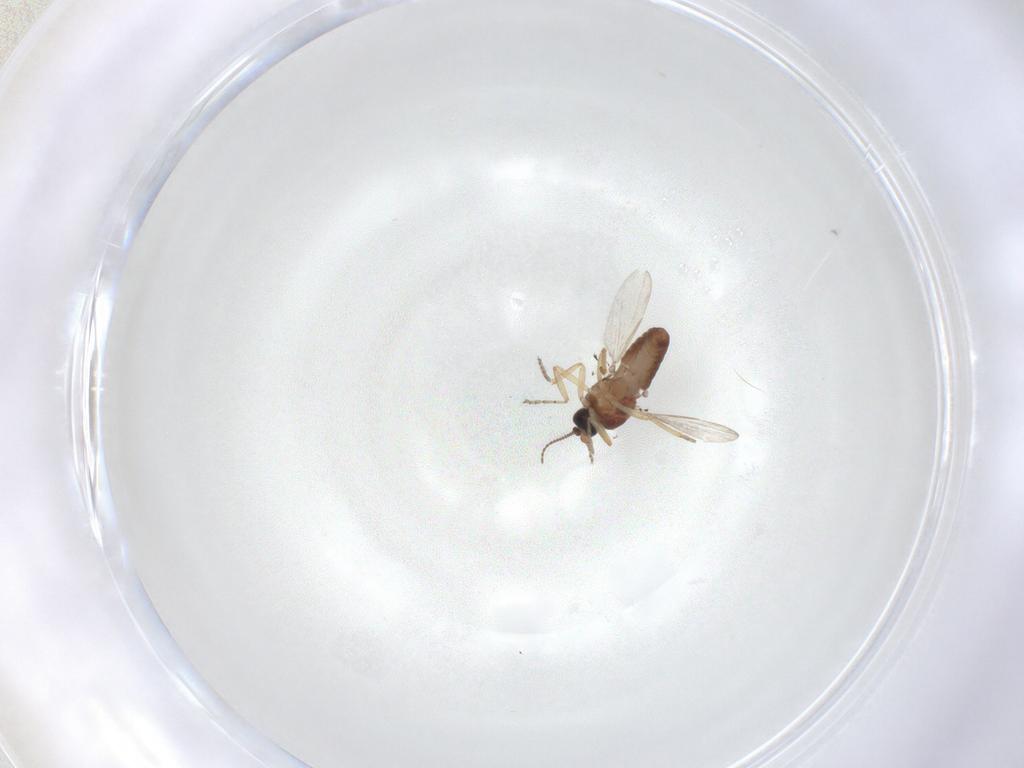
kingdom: Animalia
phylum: Arthropoda
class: Insecta
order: Diptera
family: Ceratopogonidae
